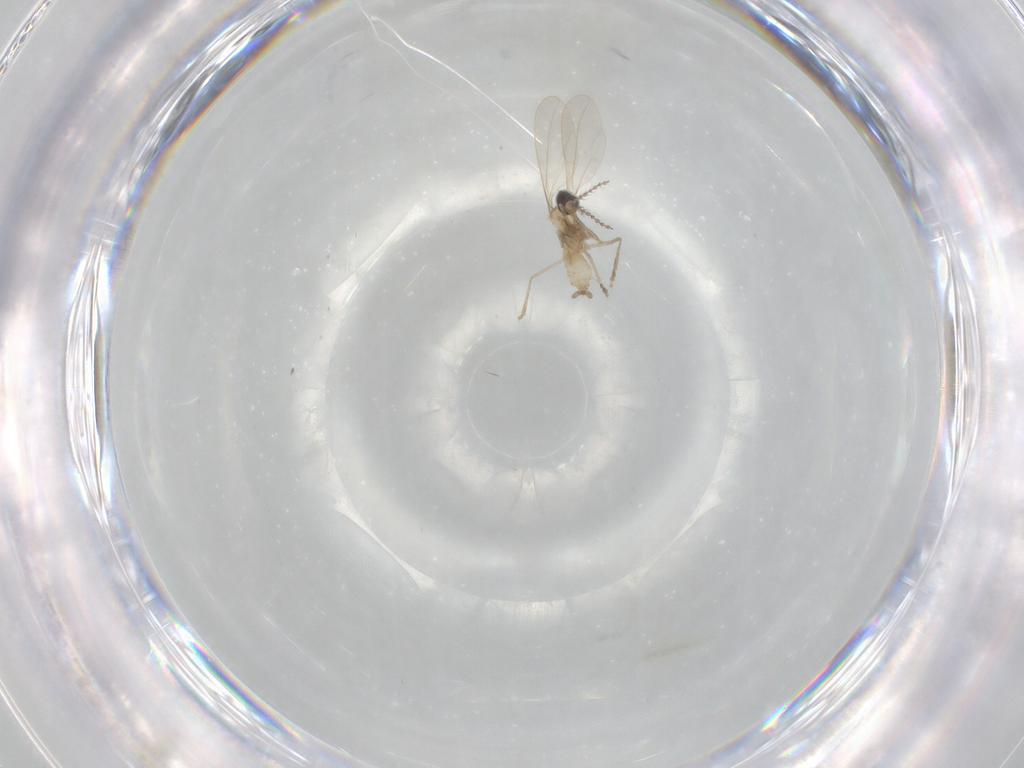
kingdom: Animalia
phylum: Arthropoda
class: Insecta
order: Diptera
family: Cecidomyiidae
